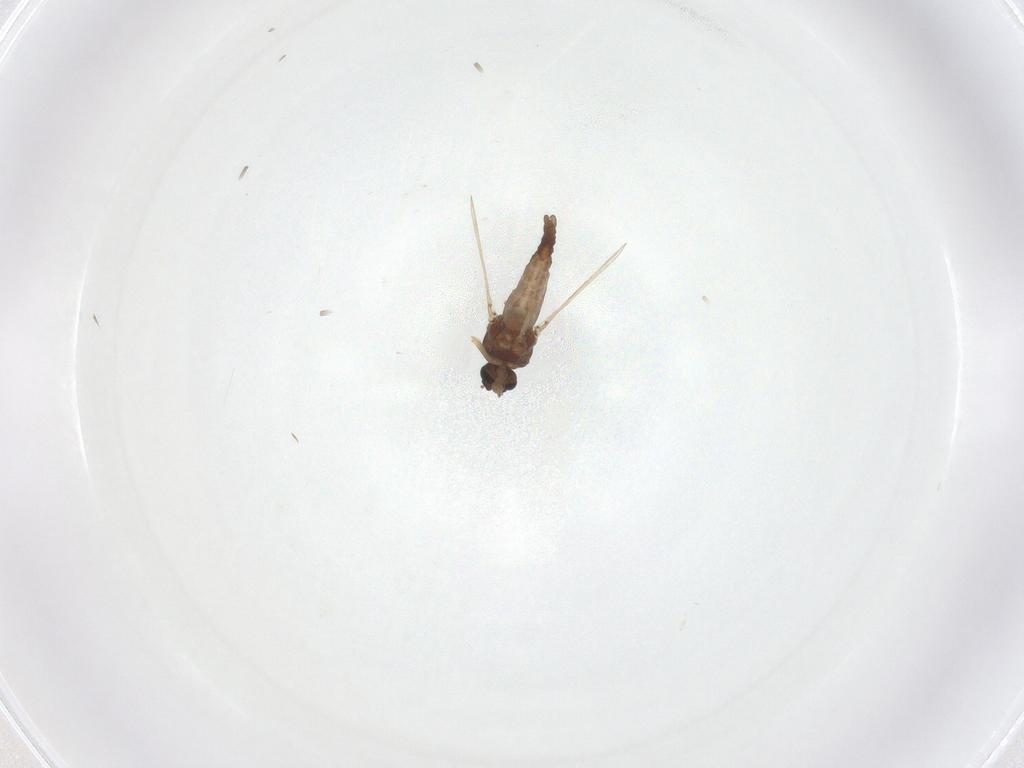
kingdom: Animalia
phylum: Arthropoda
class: Insecta
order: Diptera
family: Ceratopogonidae
